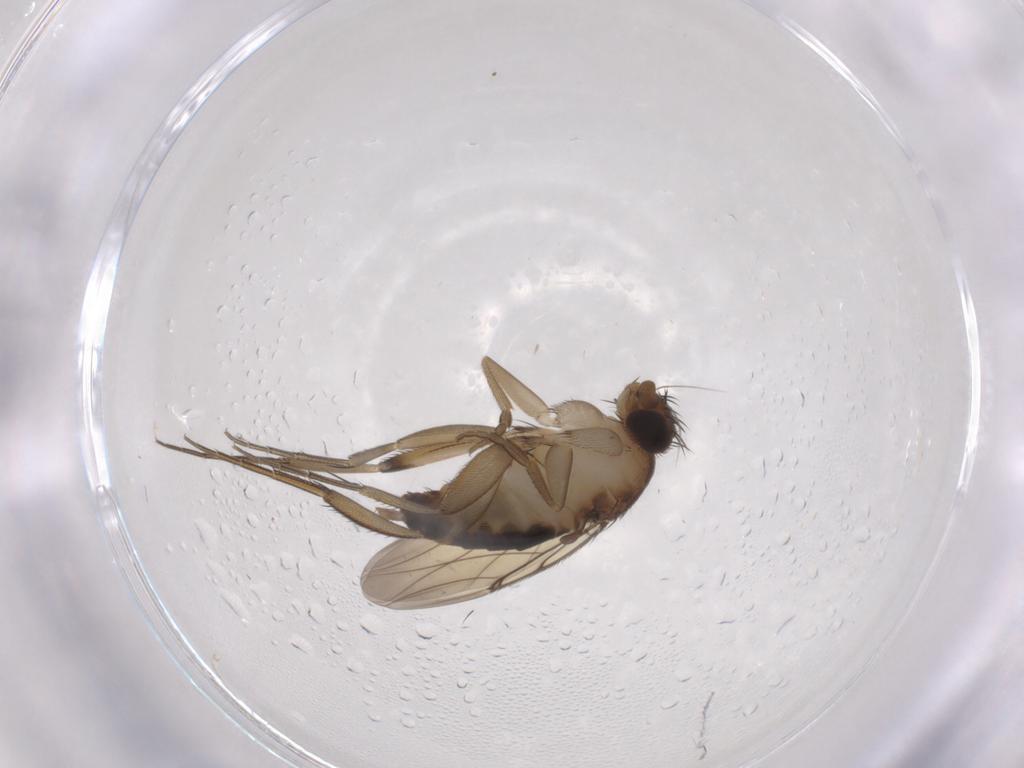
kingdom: Animalia
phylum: Arthropoda
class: Insecta
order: Diptera
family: Phoridae
